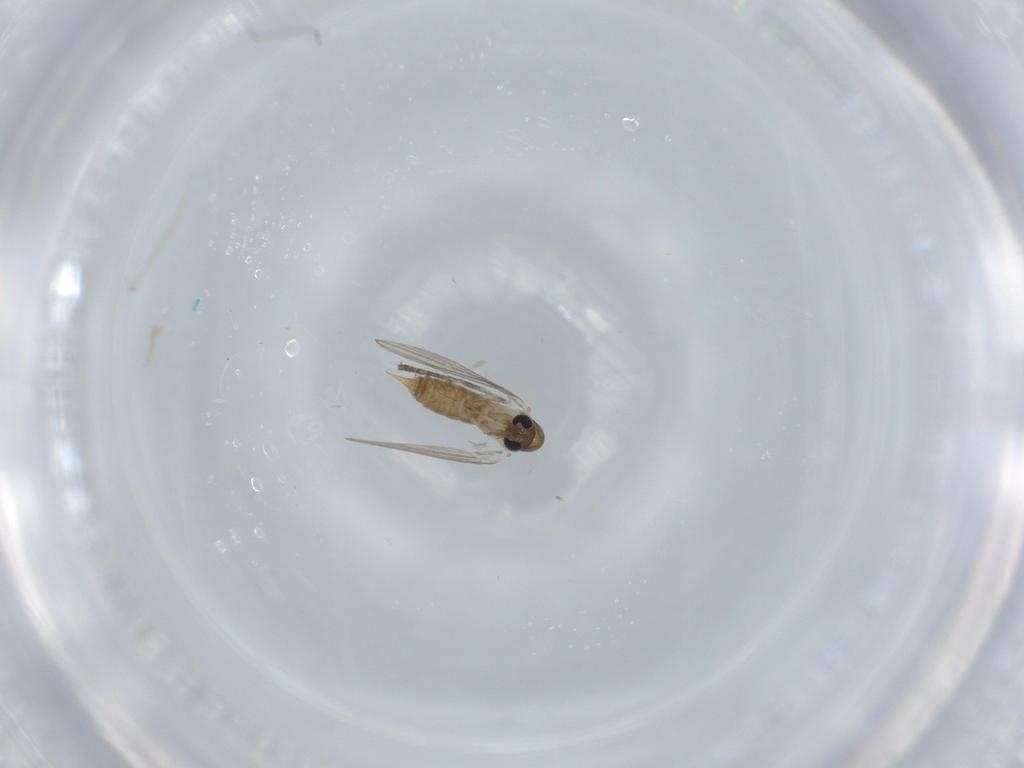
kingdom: Animalia
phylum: Arthropoda
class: Insecta
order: Diptera
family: Psychodidae
